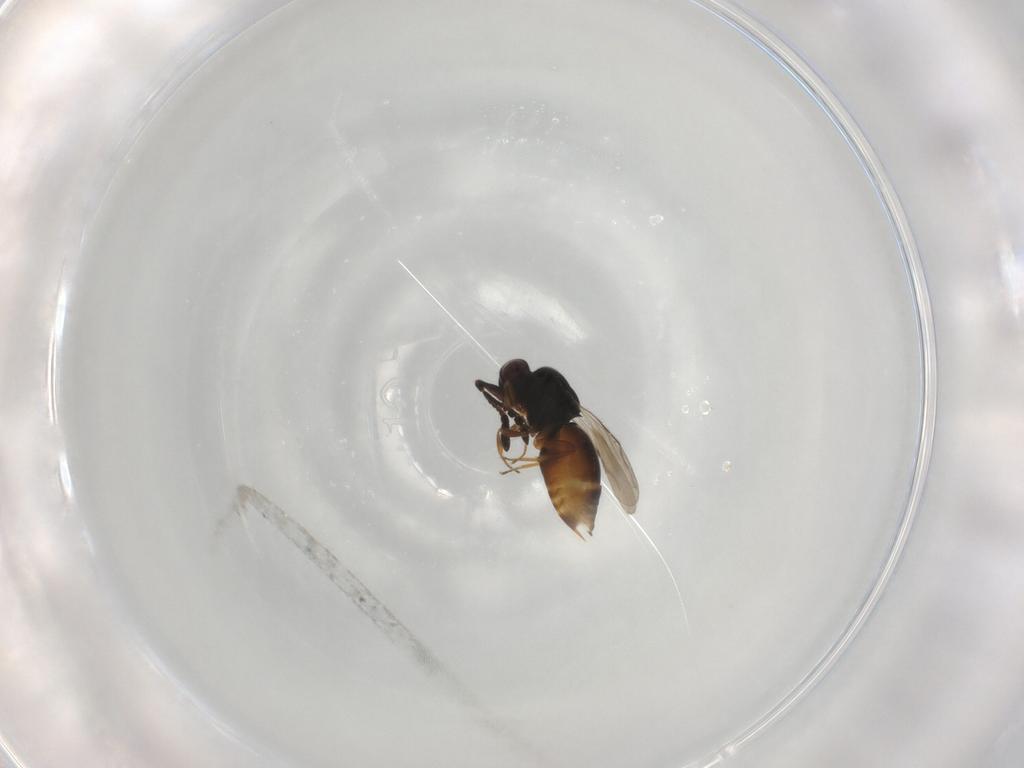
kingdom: Animalia
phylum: Arthropoda
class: Insecta
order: Hymenoptera
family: Ceraphronidae
